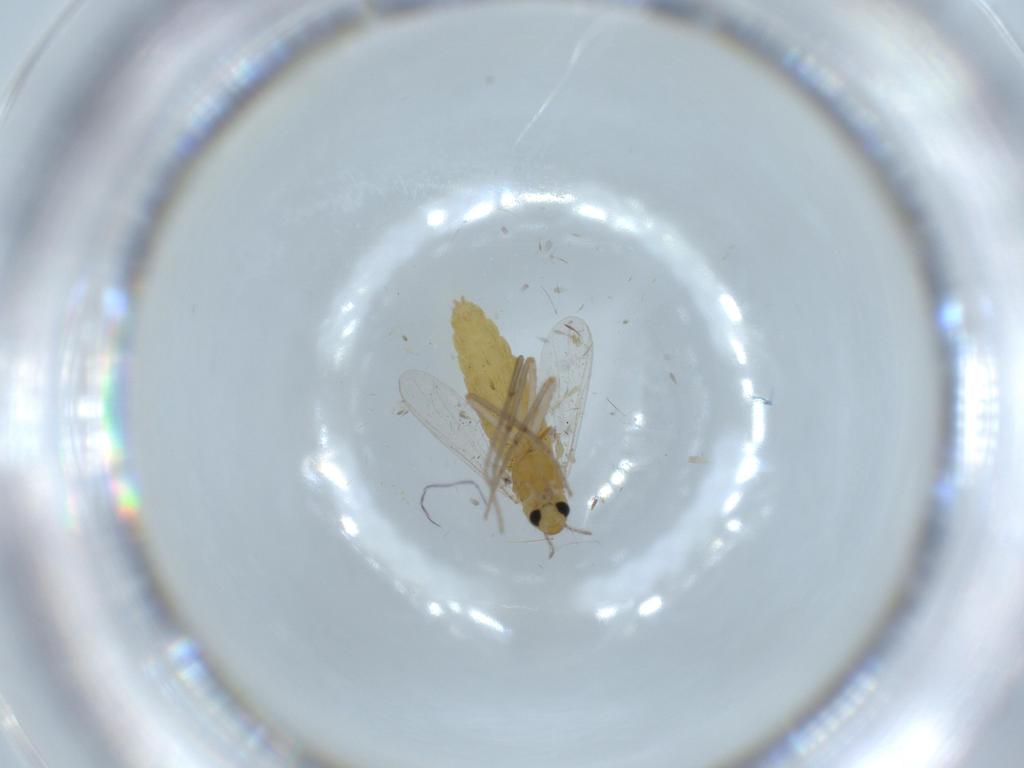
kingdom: Animalia
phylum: Arthropoda
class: Insecta
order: Diptera
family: Chironomidae
